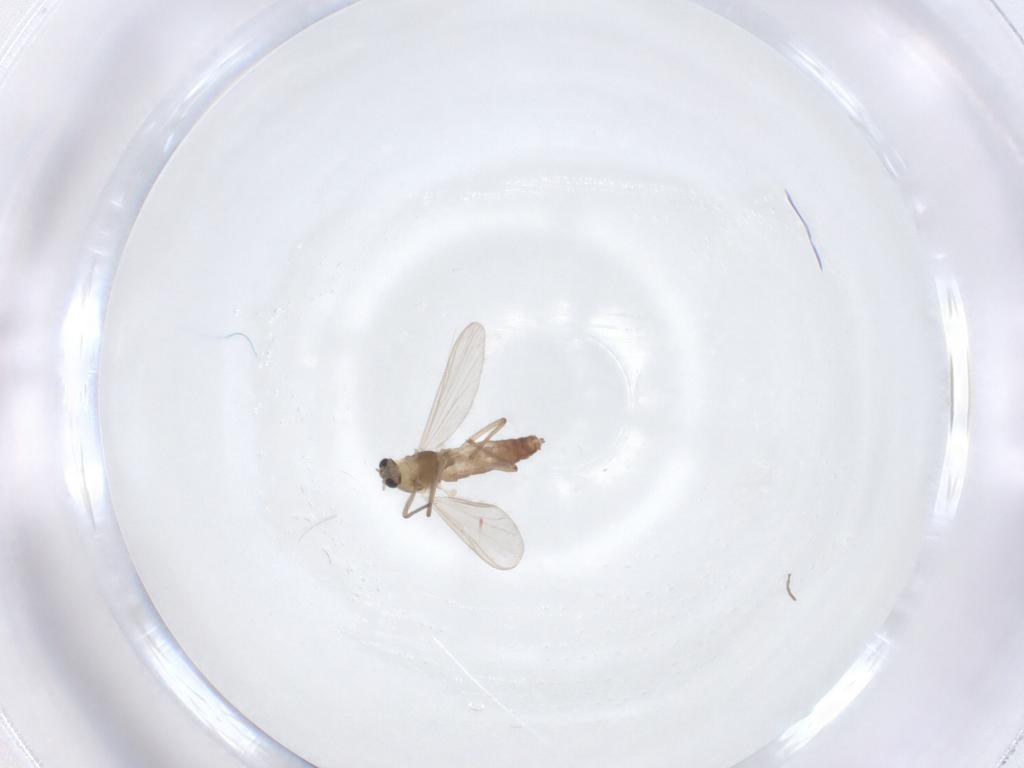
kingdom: Animalia
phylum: Arthropoda
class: Insecta
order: Diptera
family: Chironomidae
